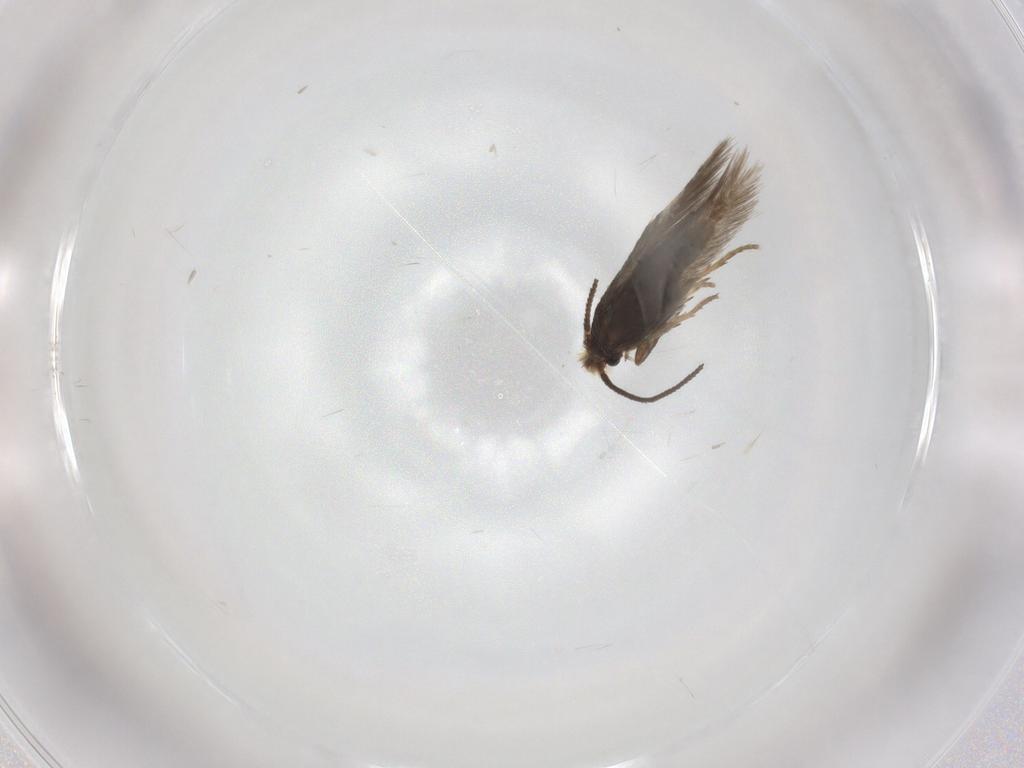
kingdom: Animalia
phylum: Arthropoda
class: Insecta
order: Lepidoptera
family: Nepticulidae
